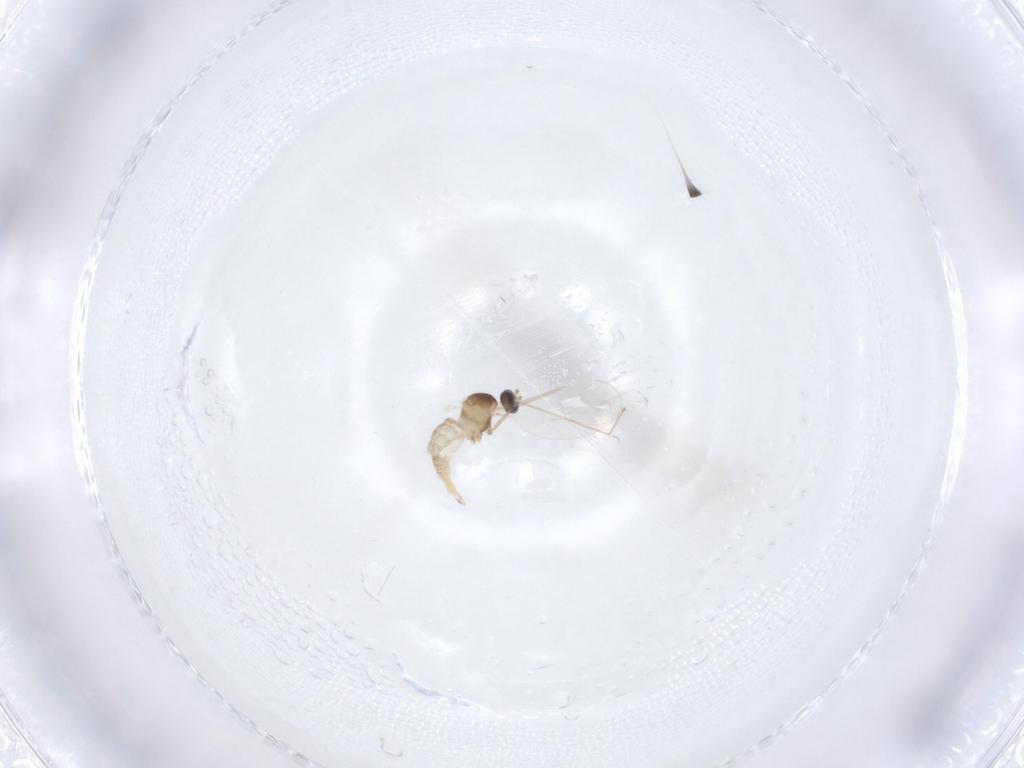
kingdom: Animalia
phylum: Arthropoda
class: Insecta
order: Diptera
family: Cecidomyiidae
